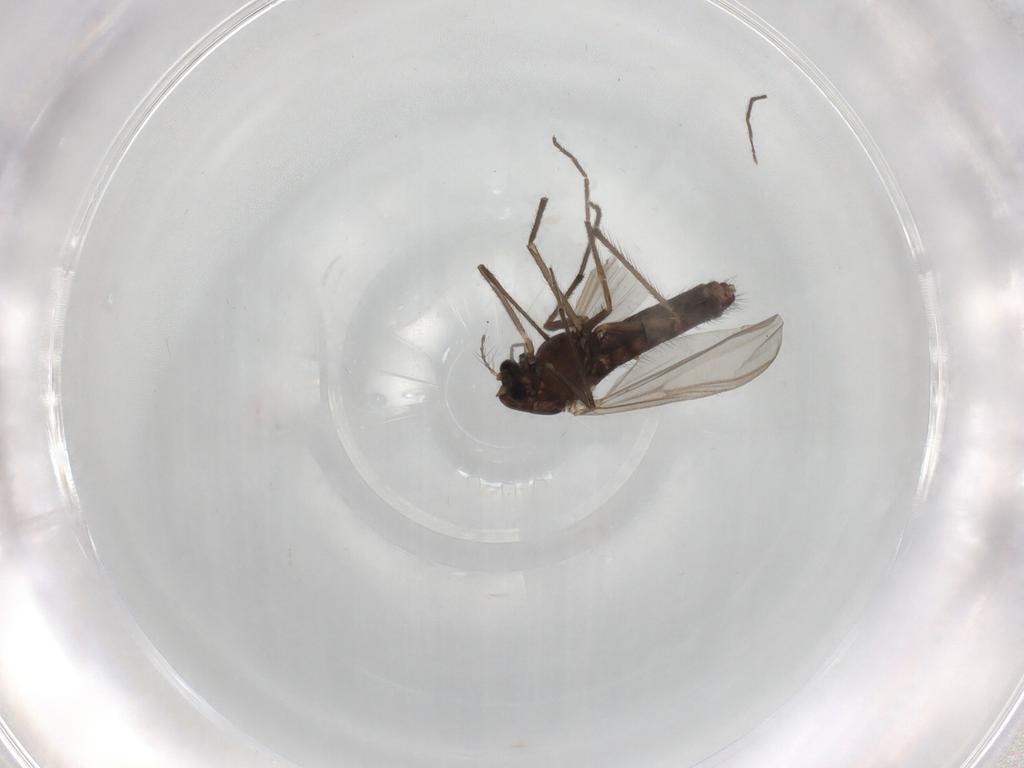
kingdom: Animalia
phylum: Arthropoda
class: Insecta
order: Diptera
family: Chironomidae
